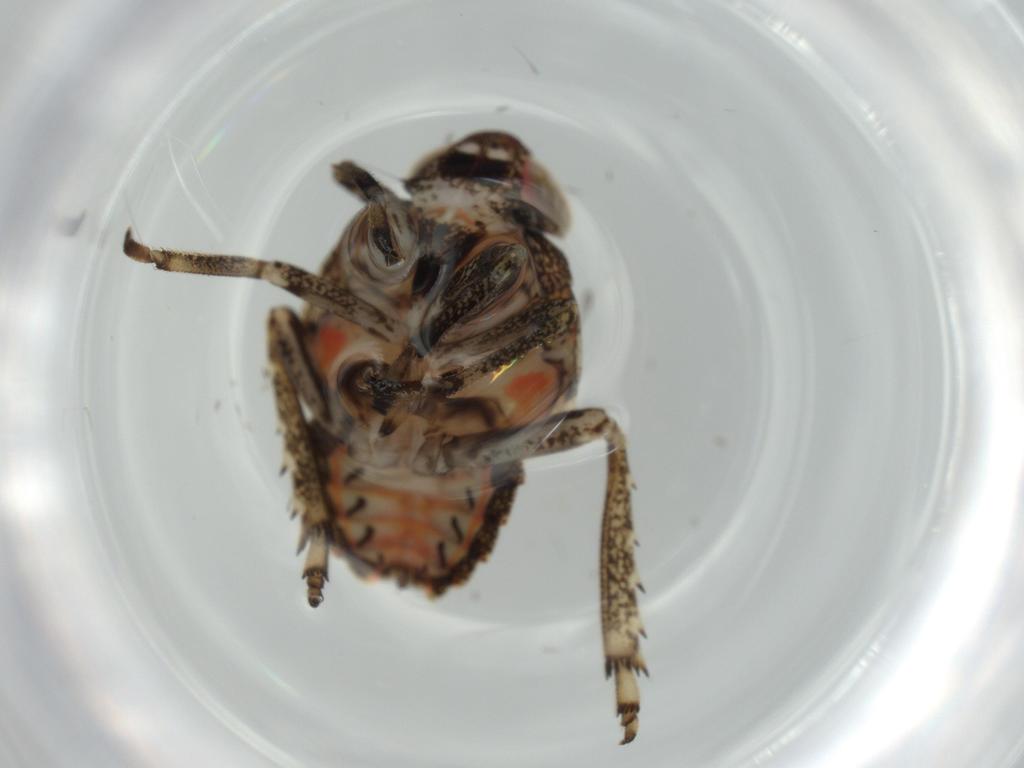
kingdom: Animalia
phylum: Arthropoda
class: Insecta
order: Hemiptera
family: Issidae
